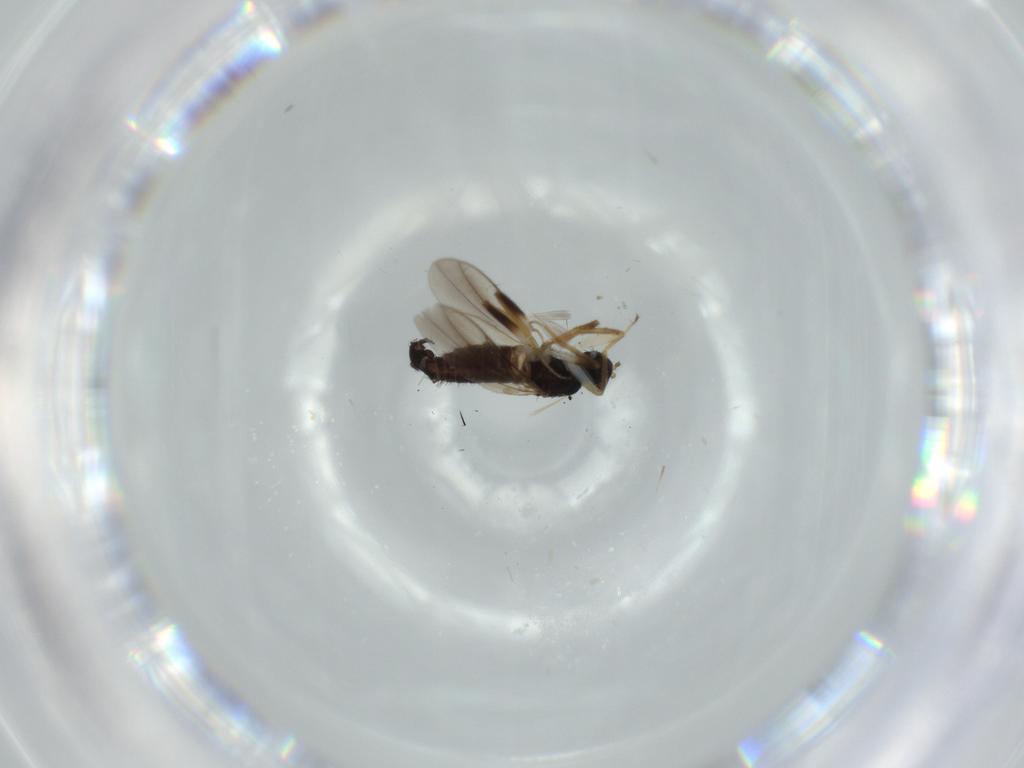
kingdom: Animalia
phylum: Arthropoda
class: Insecta
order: Diptera
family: Hybotidae
